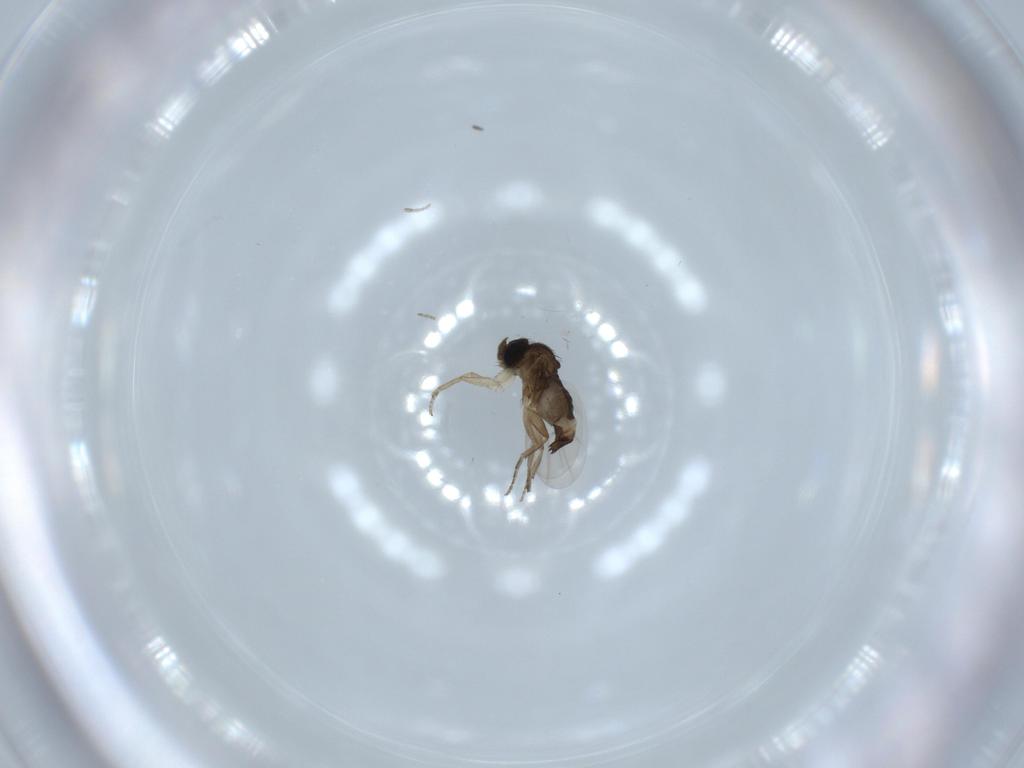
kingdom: Animalia
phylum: Arthropoda
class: Insecta
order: Diptera
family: Phoridae
